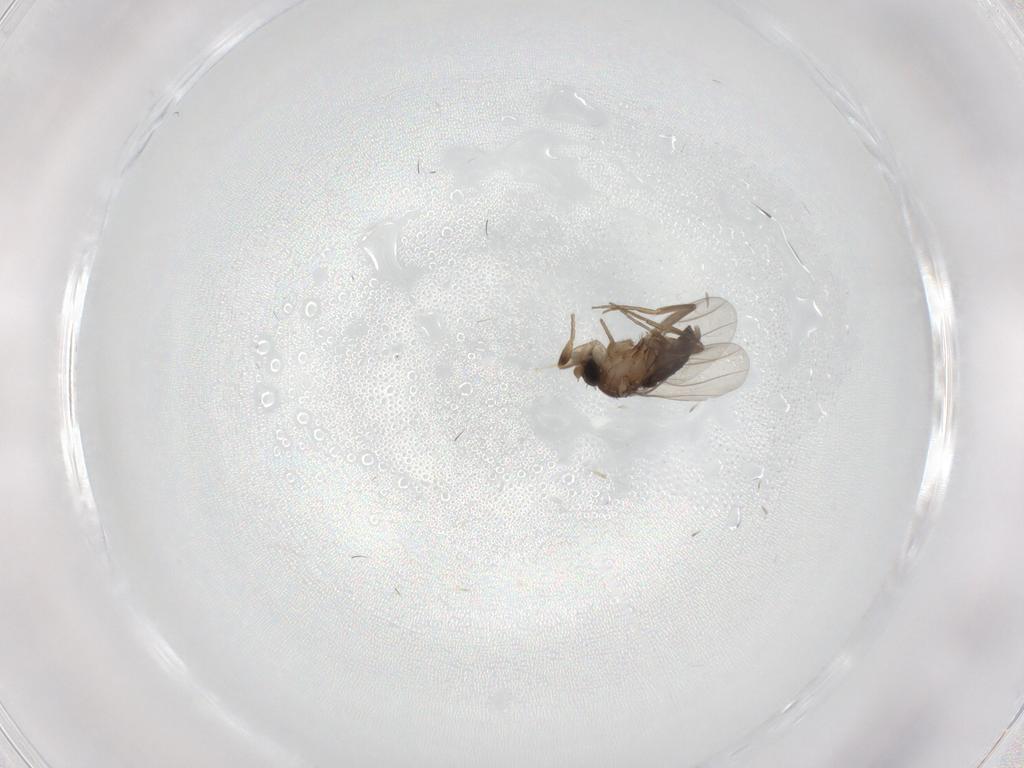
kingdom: Animalia
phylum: Arthropoda
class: Insecta
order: Diptera
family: Phoridae
